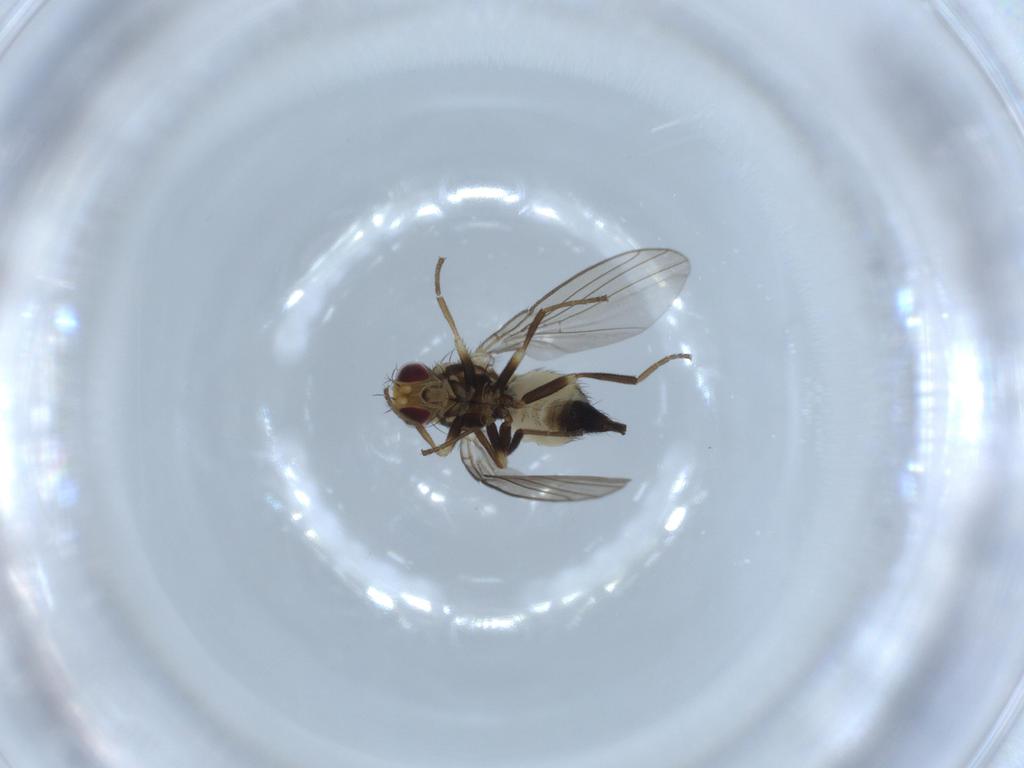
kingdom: Animalia
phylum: Arthropoda
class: Insecta
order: Diptera
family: Agromyzidae
